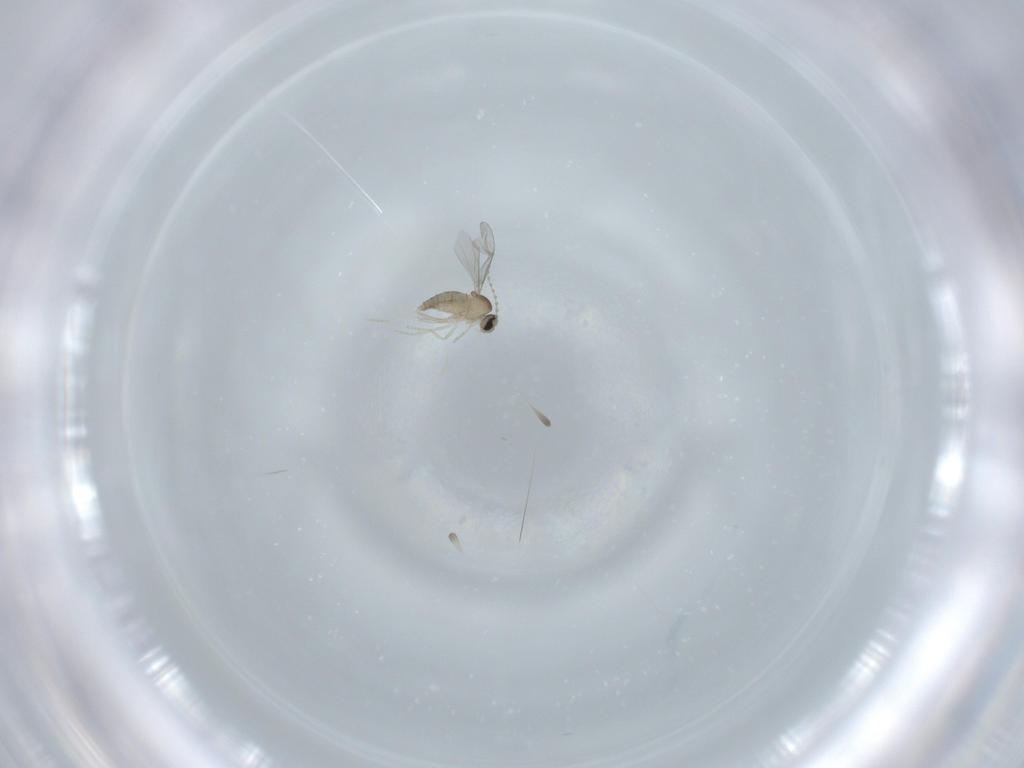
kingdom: Animalia
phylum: Arthropoda
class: Insecta
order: Diptera
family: Cecidomyiidae
